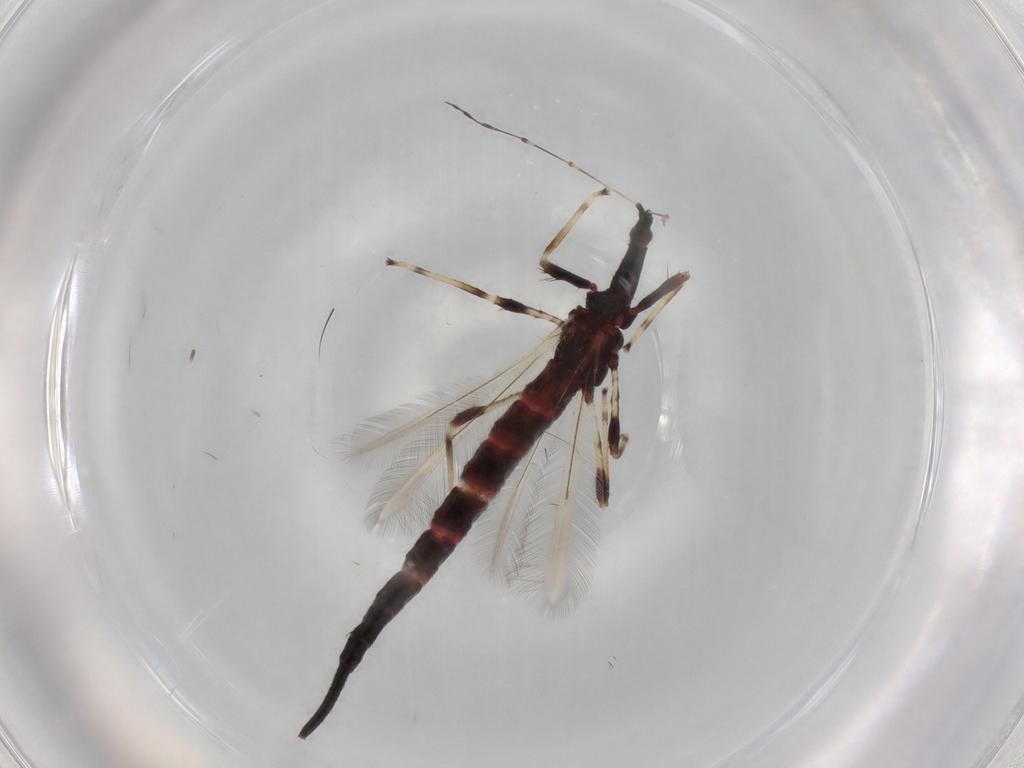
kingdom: Animalia
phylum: Arthropoda
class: Insecta
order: Thysanoptera
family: Phlaeothripidae
